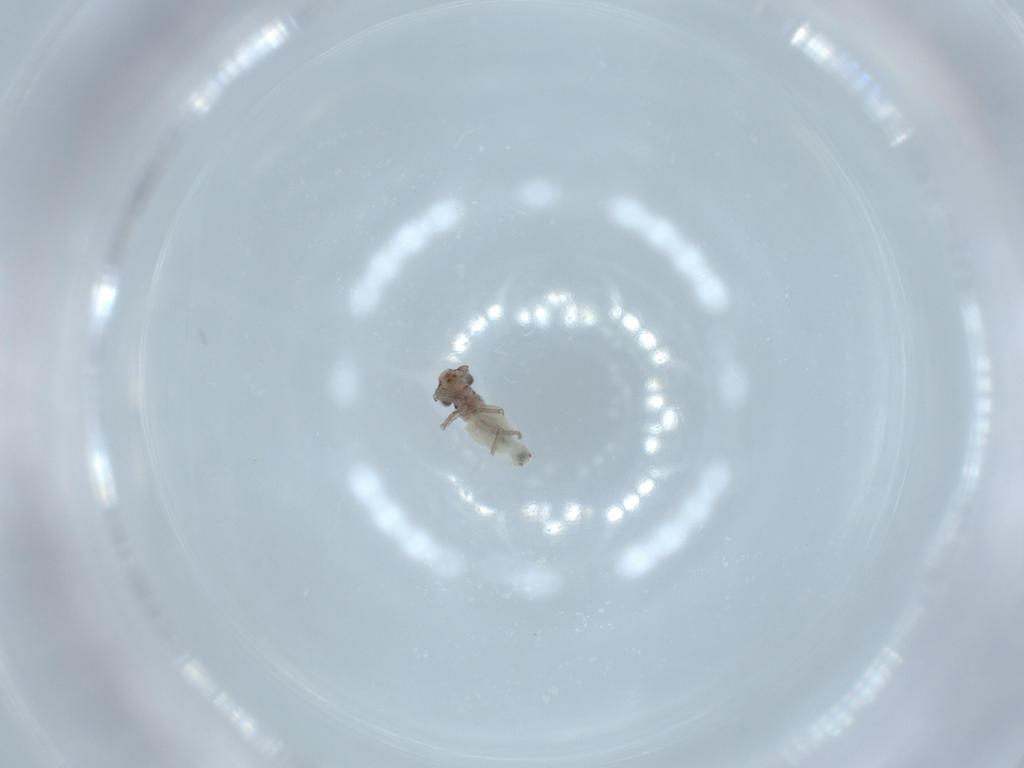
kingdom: Animalia
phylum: Arthropoda
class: Insecta
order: Psocodea
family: Lepidopsocidae
